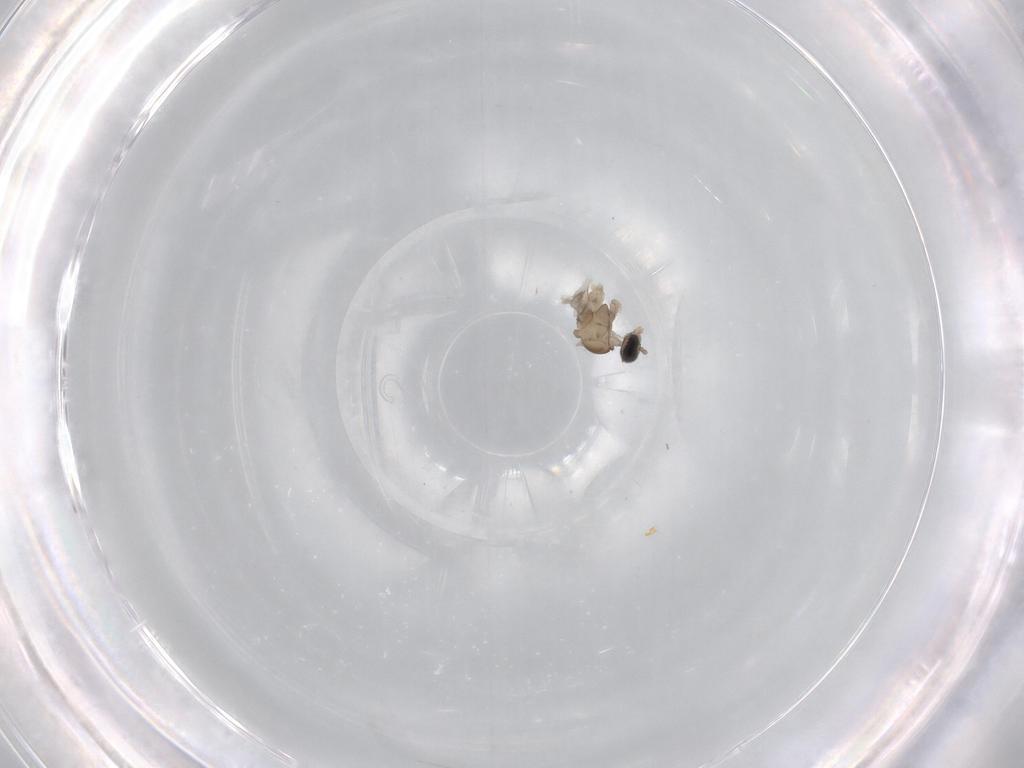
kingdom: Animalia
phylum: Arthropoda
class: Insecta
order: Diptera
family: Cecidomyiidae
